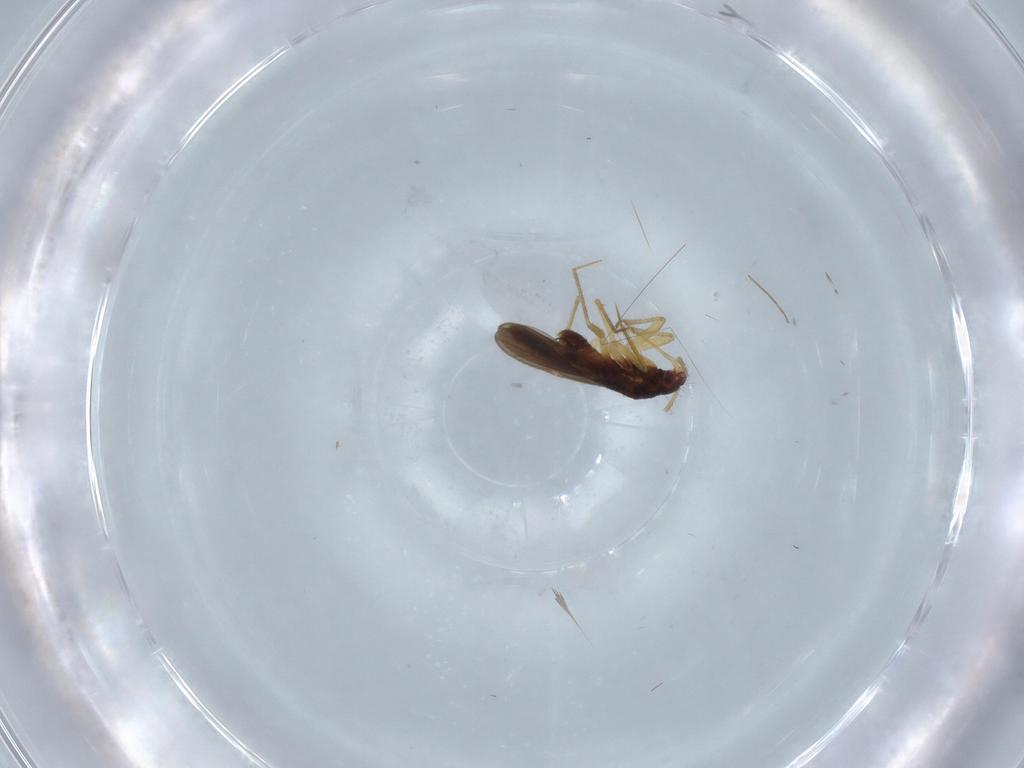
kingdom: Animalia
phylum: Arthropoda
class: Insecta
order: Hemiptera
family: Ceratocombidae
